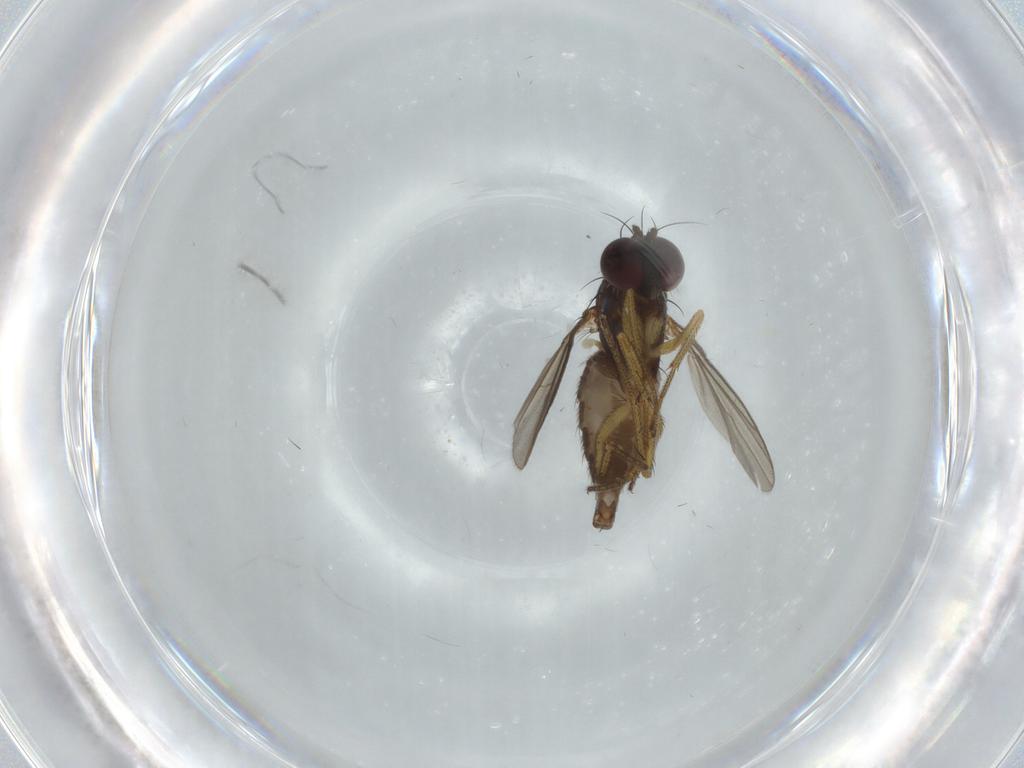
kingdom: Animalia
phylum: Arthropoda
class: Insecta
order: Diptera
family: Dolichopodidae
